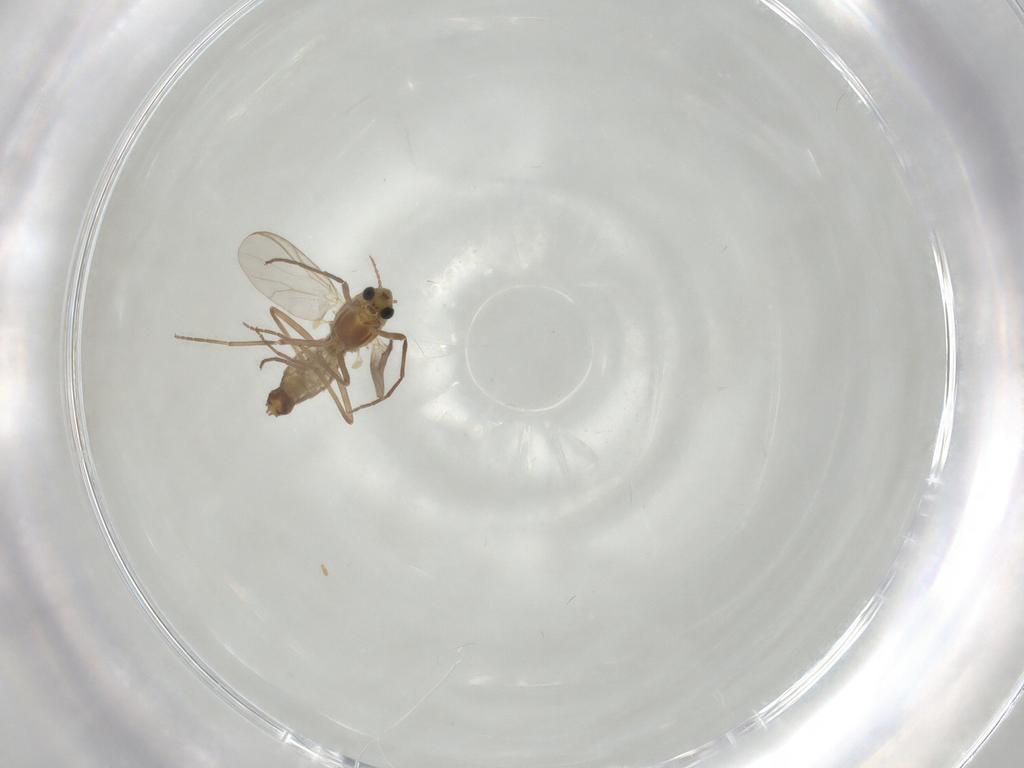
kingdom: Animalia
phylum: Arthropoda
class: Insecta
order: Diptera
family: Chironomidae
